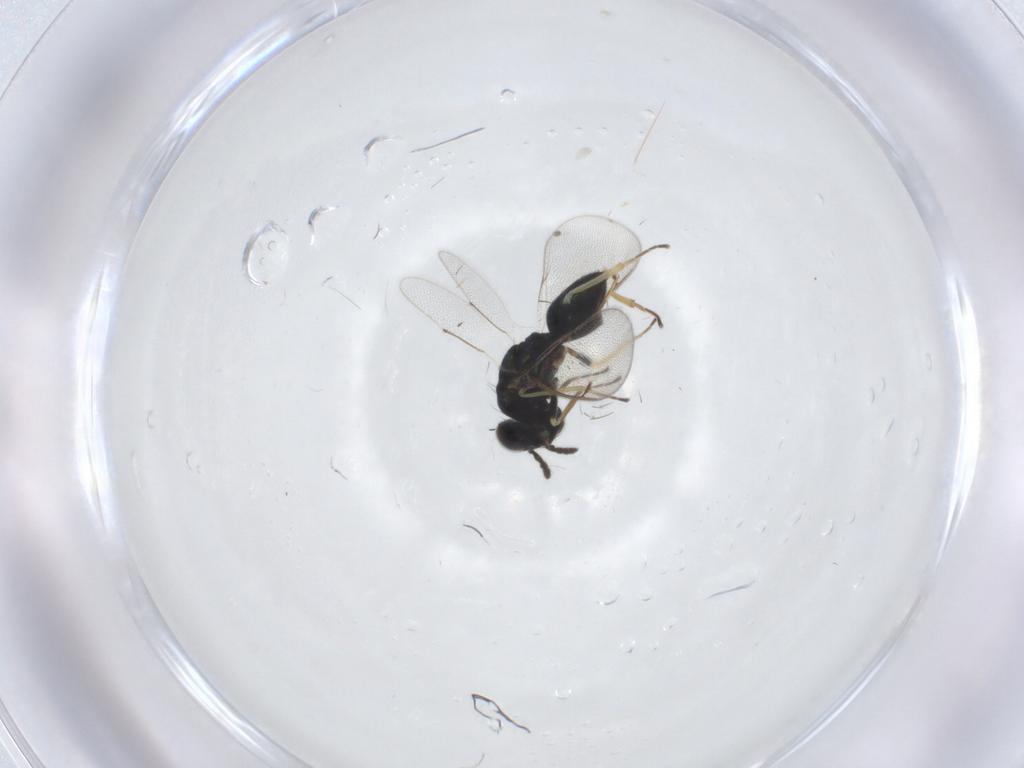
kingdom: Animalia
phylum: Arthropoda
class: Insecta
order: Hymenoptera
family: Eulophidae
